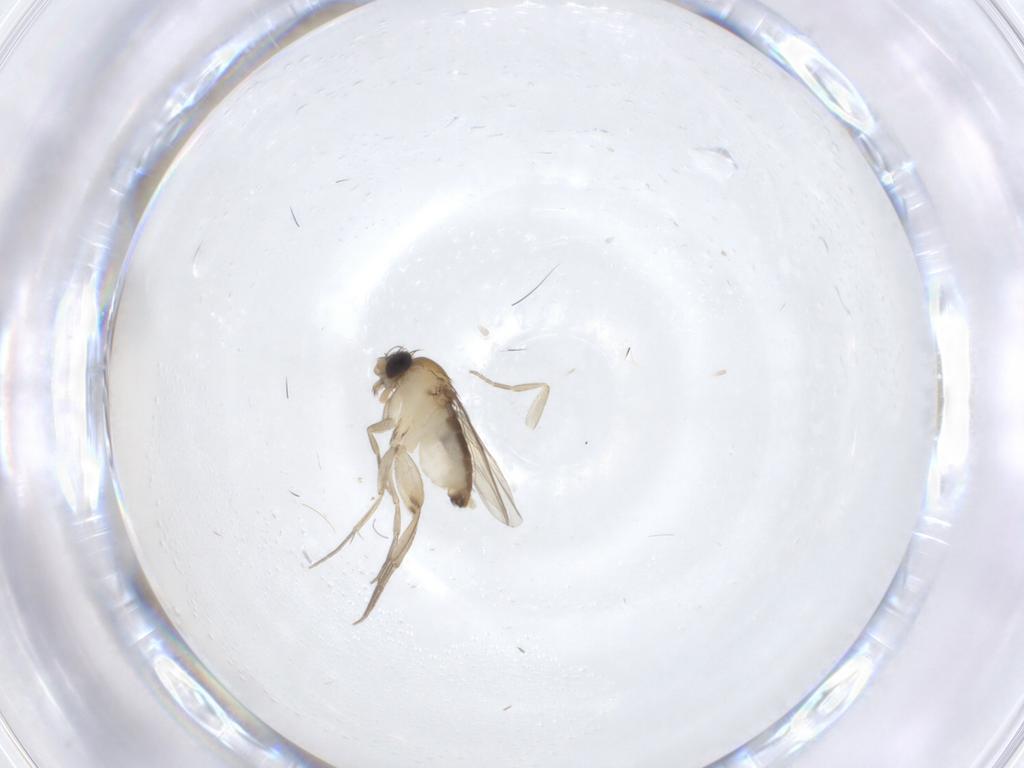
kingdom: Animalia
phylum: Arthropoda
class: Insecta
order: Diptera
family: Phoridae
